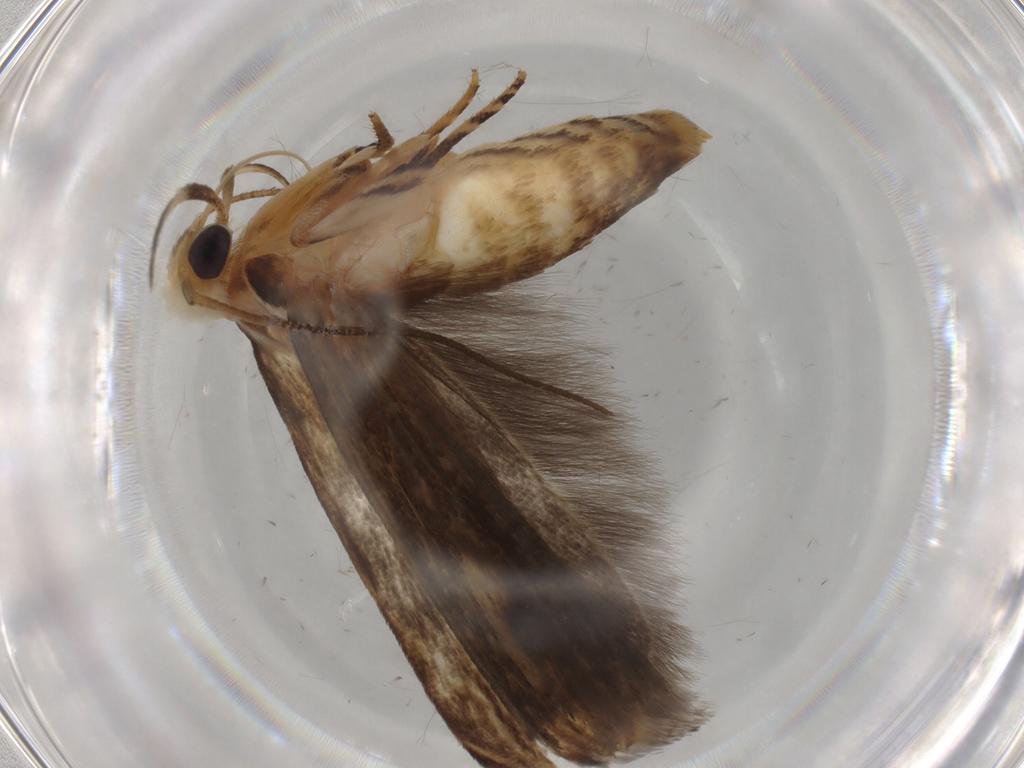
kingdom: Animalia
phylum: Arthropoda
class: Insecta
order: Lepidoptera
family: Gelechiidae
